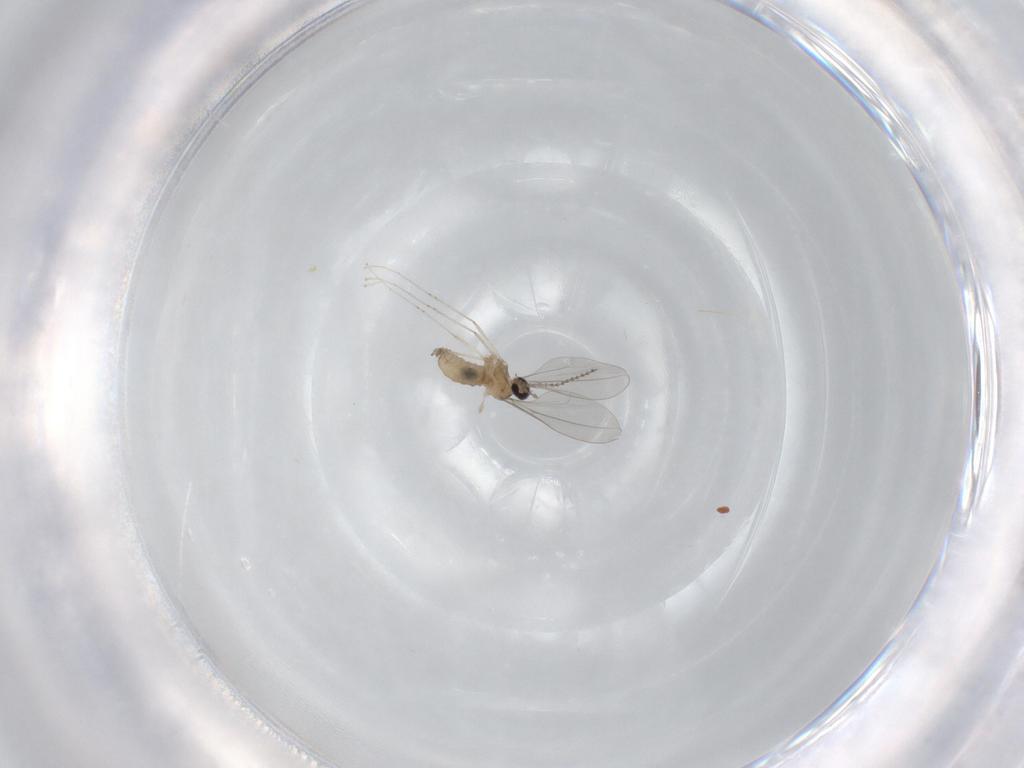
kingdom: Animalia
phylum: Arthropoda
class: Insecta
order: Diptera
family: Cecidomyiidae
